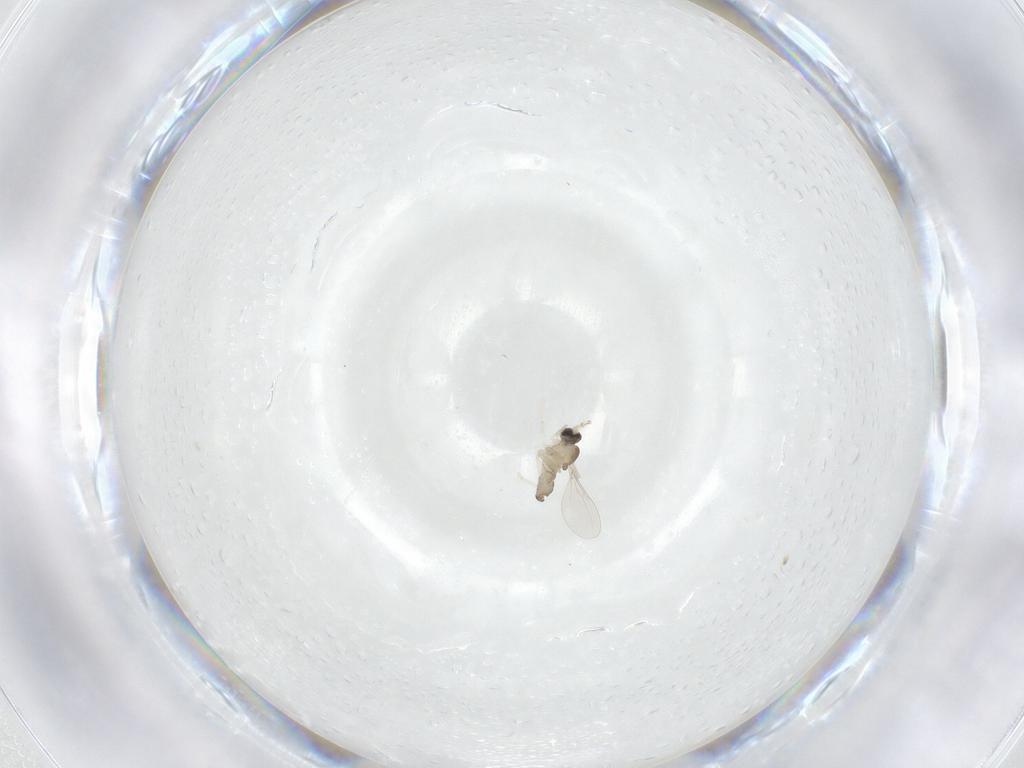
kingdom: Animalia
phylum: Arthropoda
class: Insecta
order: Diptera
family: Cecidomyiidae
